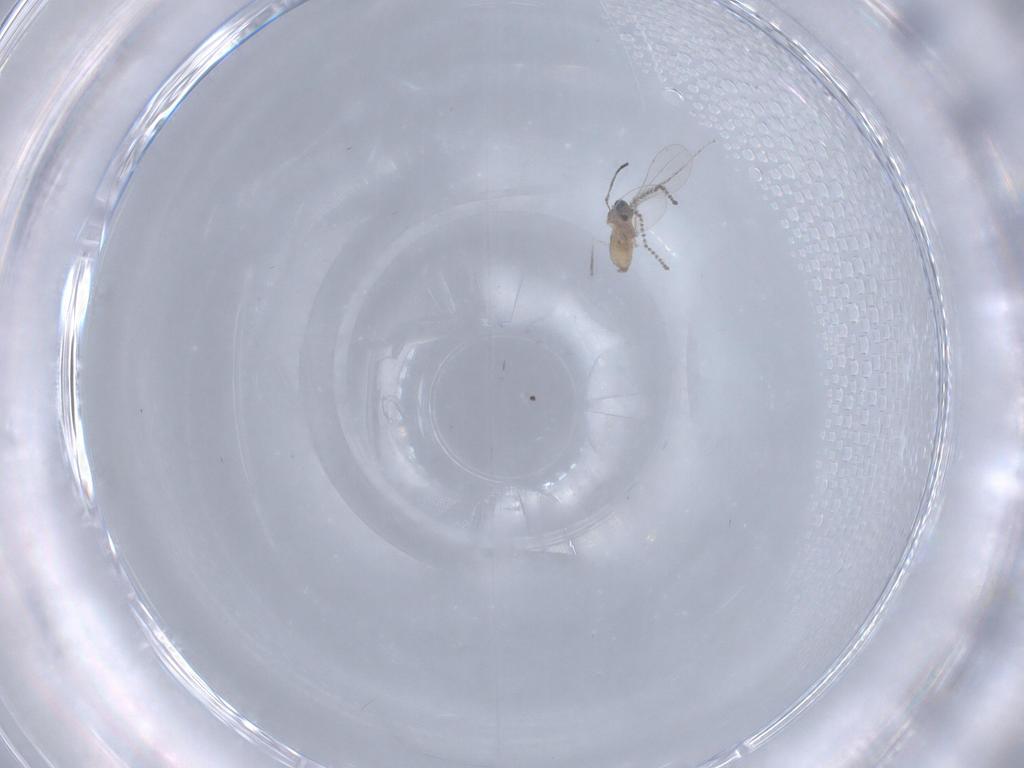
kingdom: Animalia
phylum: Arthropoda
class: Insecta
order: Diptera
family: Cecidomyiidae
